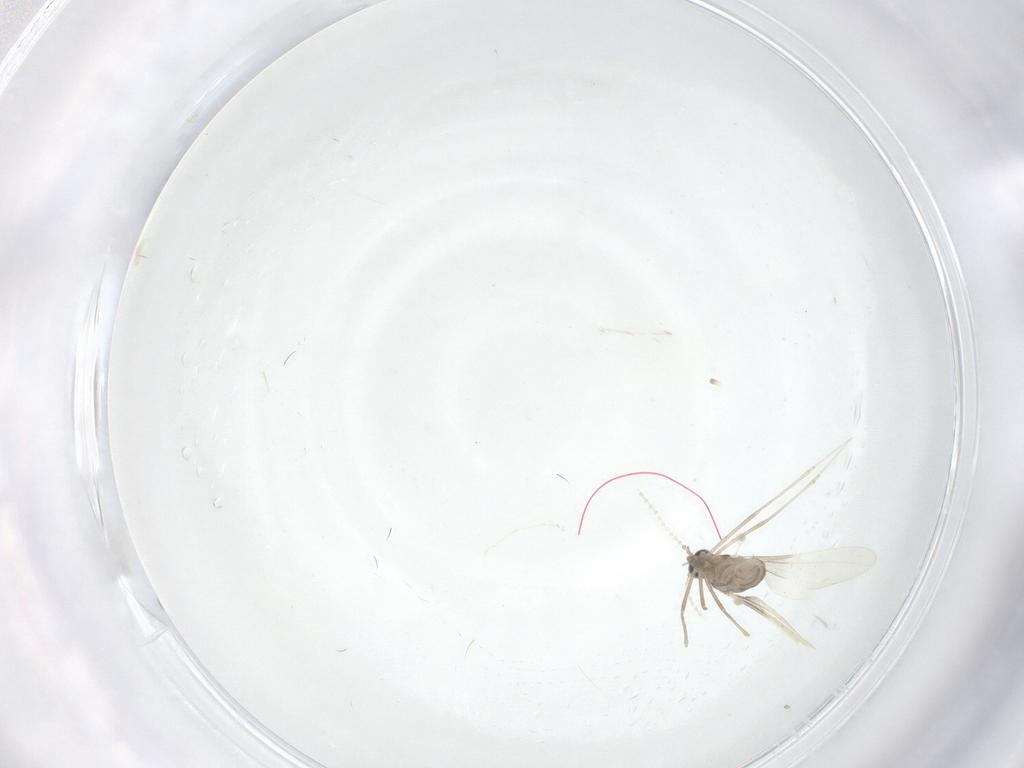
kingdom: Animalia
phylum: Arthropoda
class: Insecta
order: Diptera
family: Cecidomyiidae
